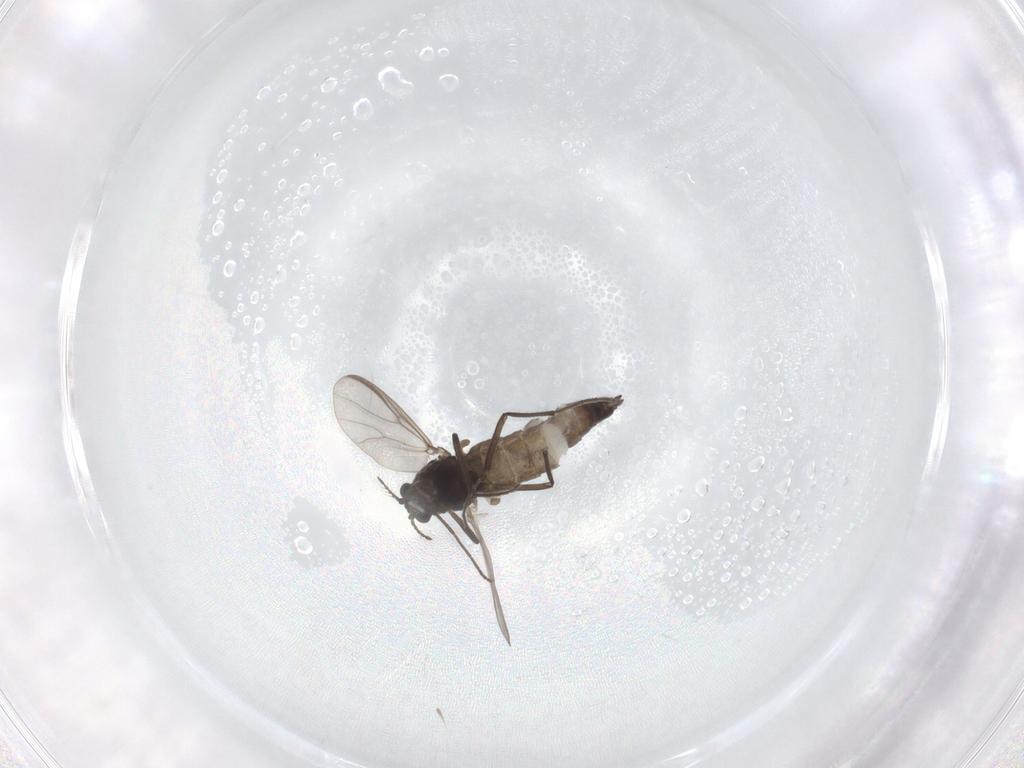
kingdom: Animalia
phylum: Arthropoda
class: Insecta
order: Diptera
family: Chironomidae
